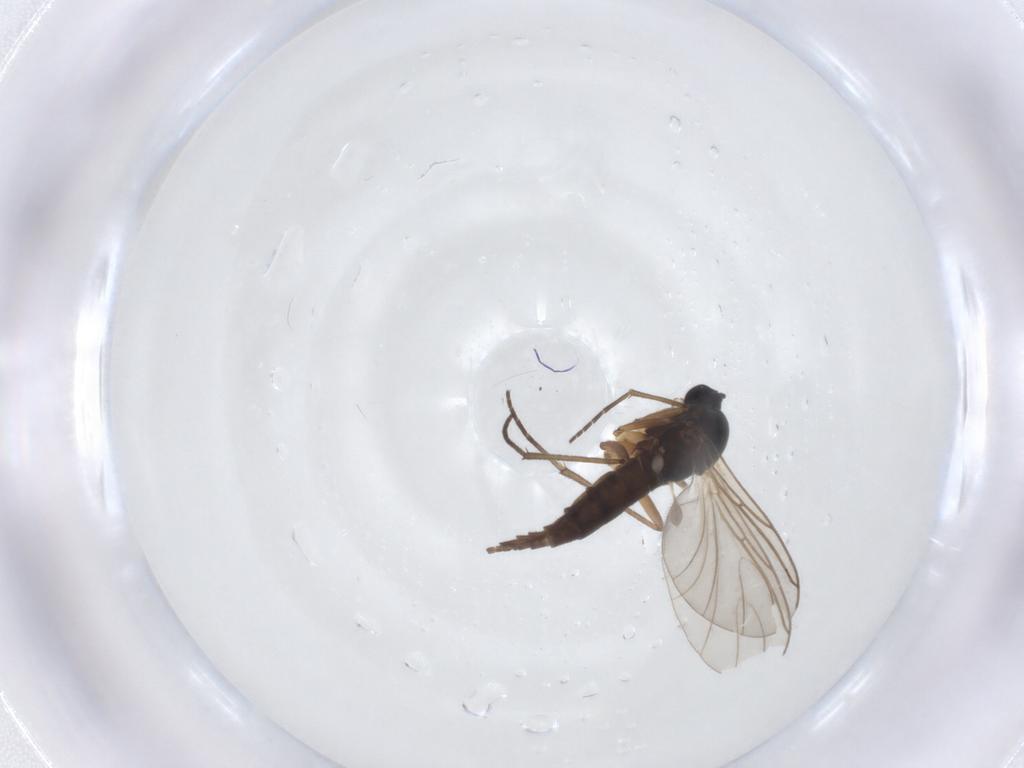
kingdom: Animalia
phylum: Arthropoda
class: Insecta
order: Diptera
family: Sciaridae
